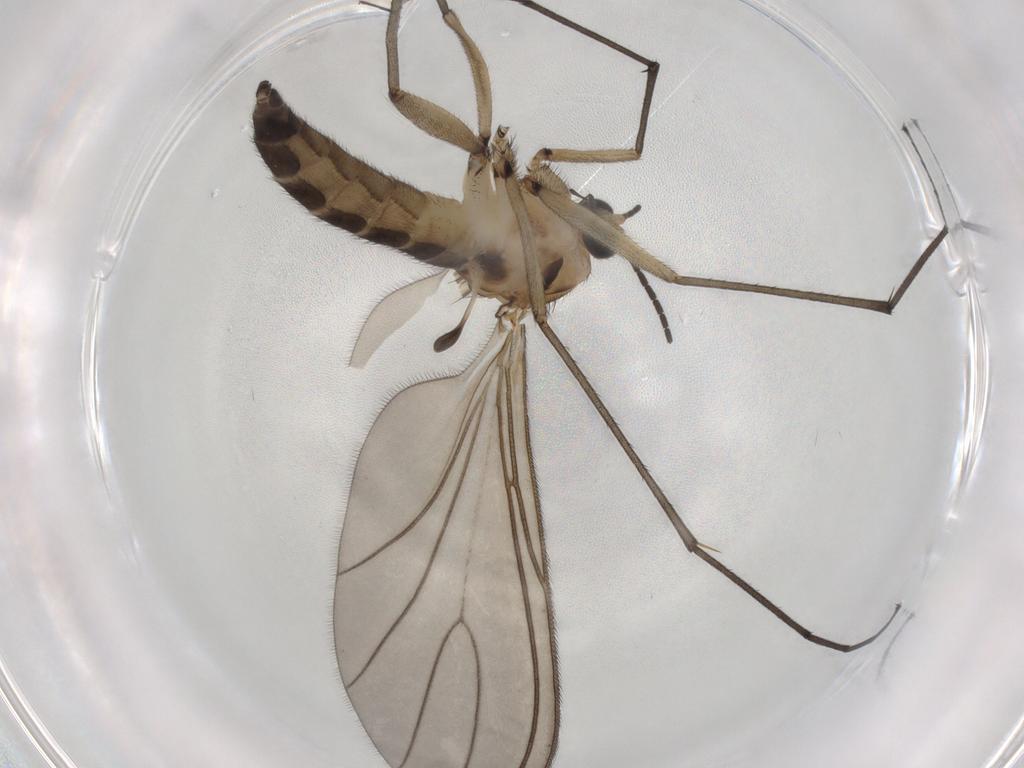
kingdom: Animalia
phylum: Arthropoda
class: Insecta
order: Diptera
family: Sciaridae
